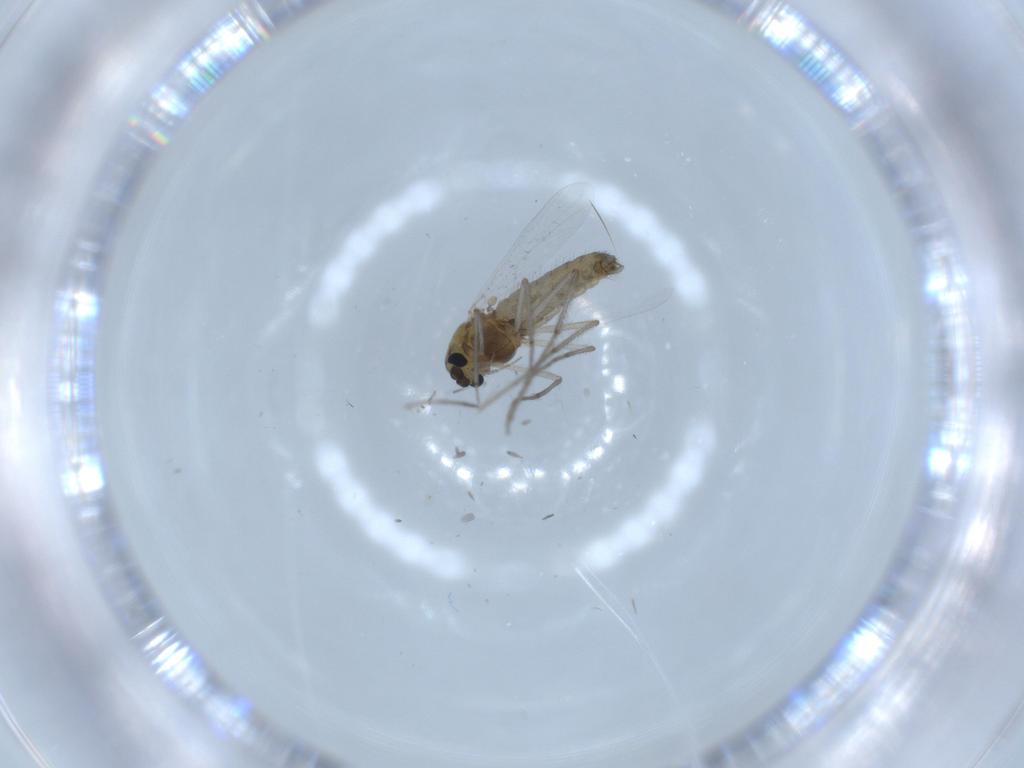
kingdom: Animalia
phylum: Arthropoda
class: Insecta
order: Diptera
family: Chironomidae
